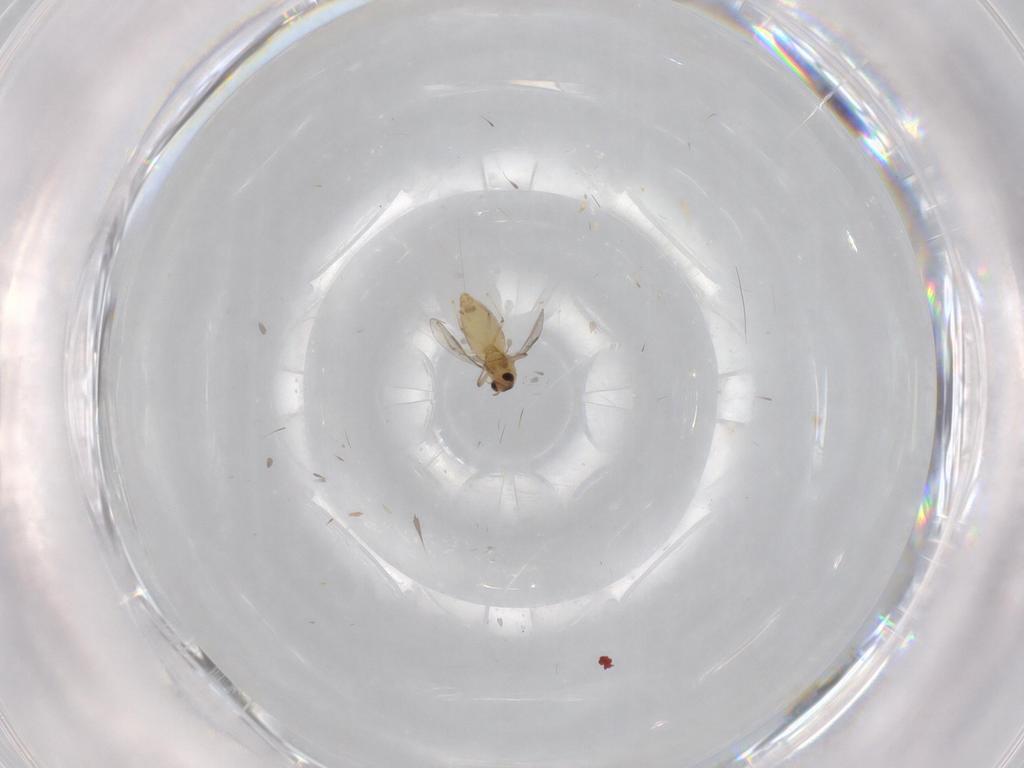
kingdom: Animalia
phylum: Arthropoda
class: Insecta
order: Diptera
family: Chironomidae
